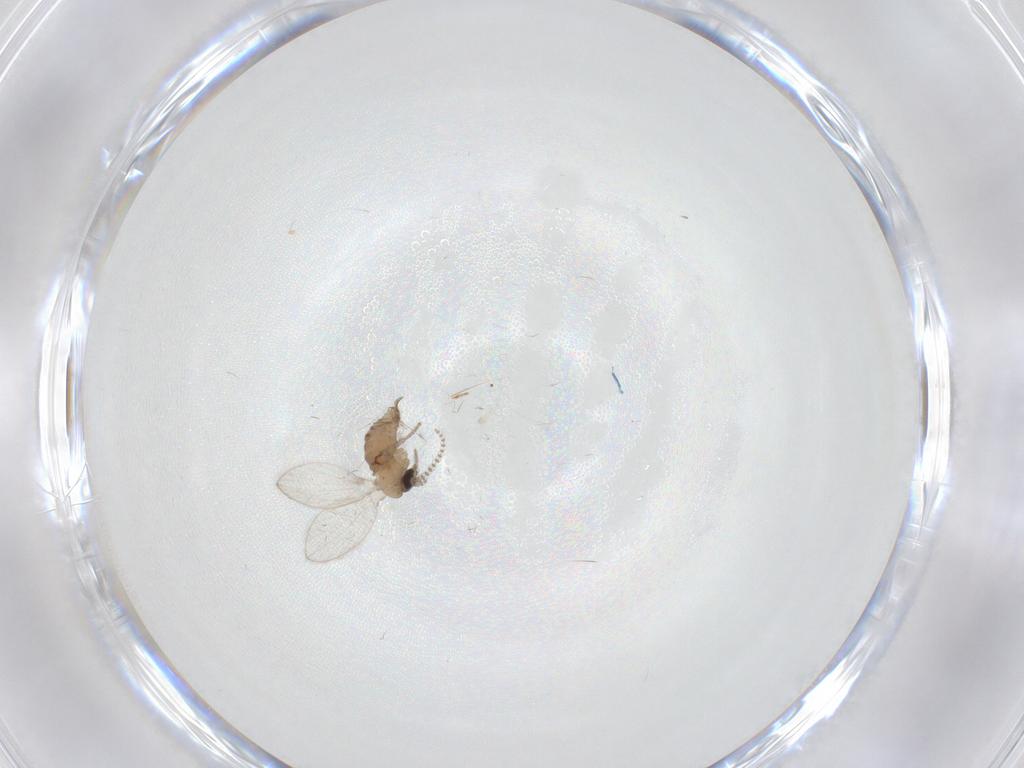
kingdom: Animalia
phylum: Arthropoda
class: Insecta
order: Diptera
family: Psychodidae
